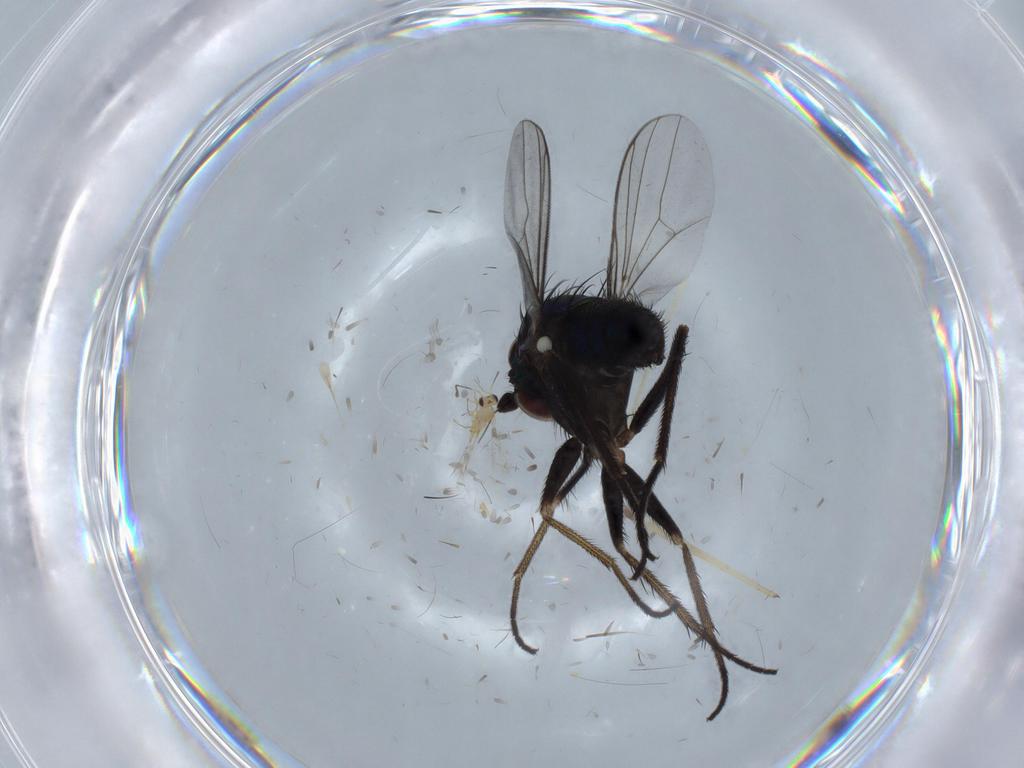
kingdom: Animalia
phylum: Arthropoda
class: Insecta
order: Diptera
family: Dolichopodidae
